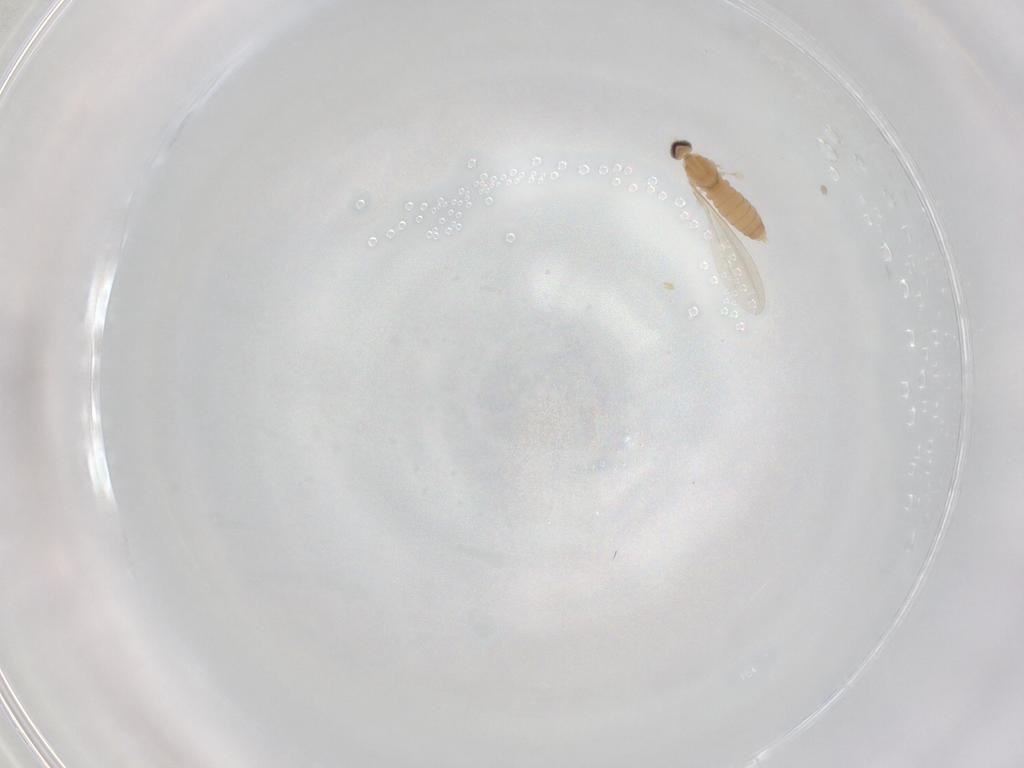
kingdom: Animalia
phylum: Arthropoda
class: Insecta
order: Diptera
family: Cecidomyiidae
